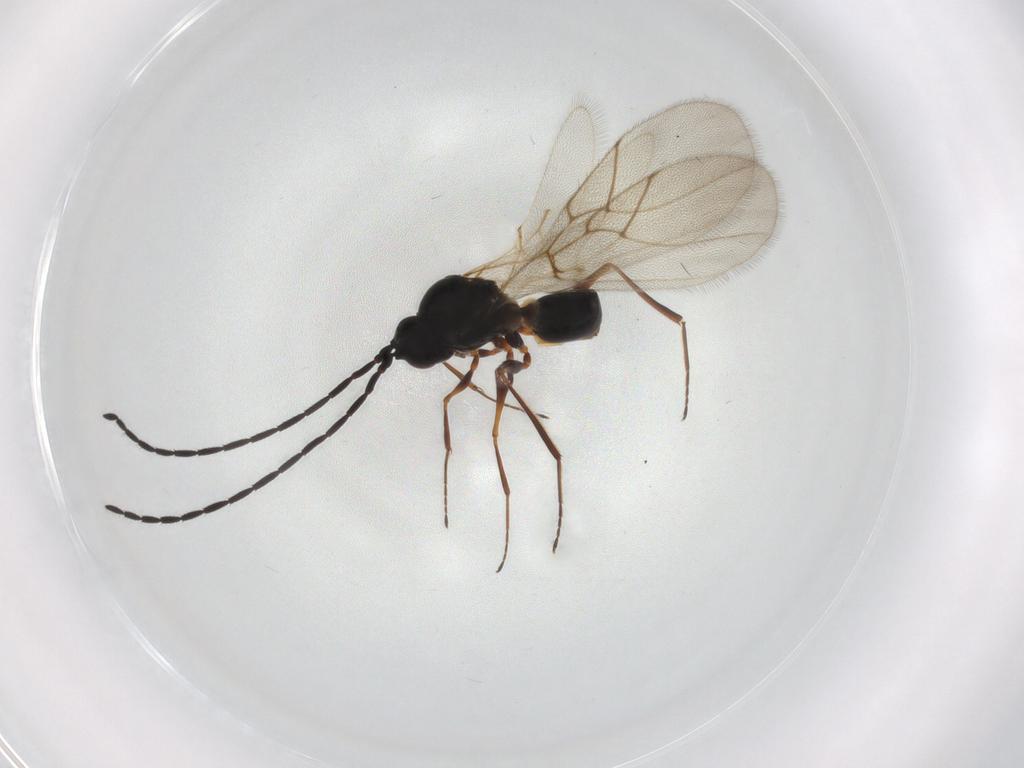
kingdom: Animalia
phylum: Arthropoda
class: Insecta
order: Hymenoptera
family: Figitidae
